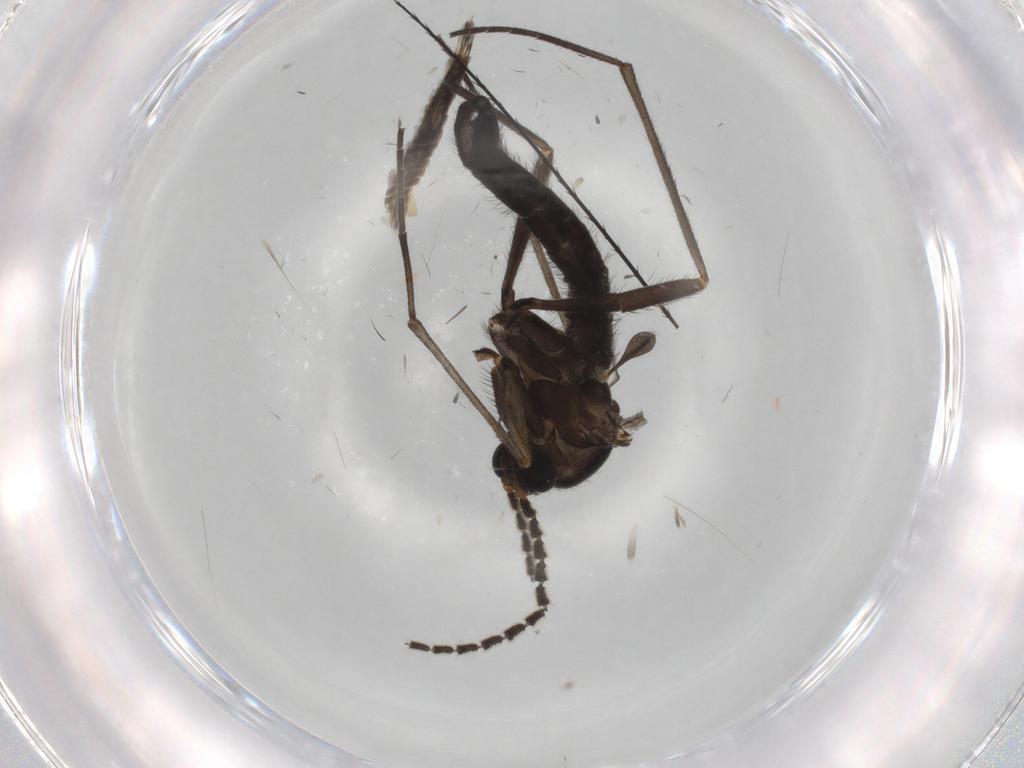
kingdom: Animalia
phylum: Arthropoda
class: Insecta
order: Diptera
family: Sciaridae
